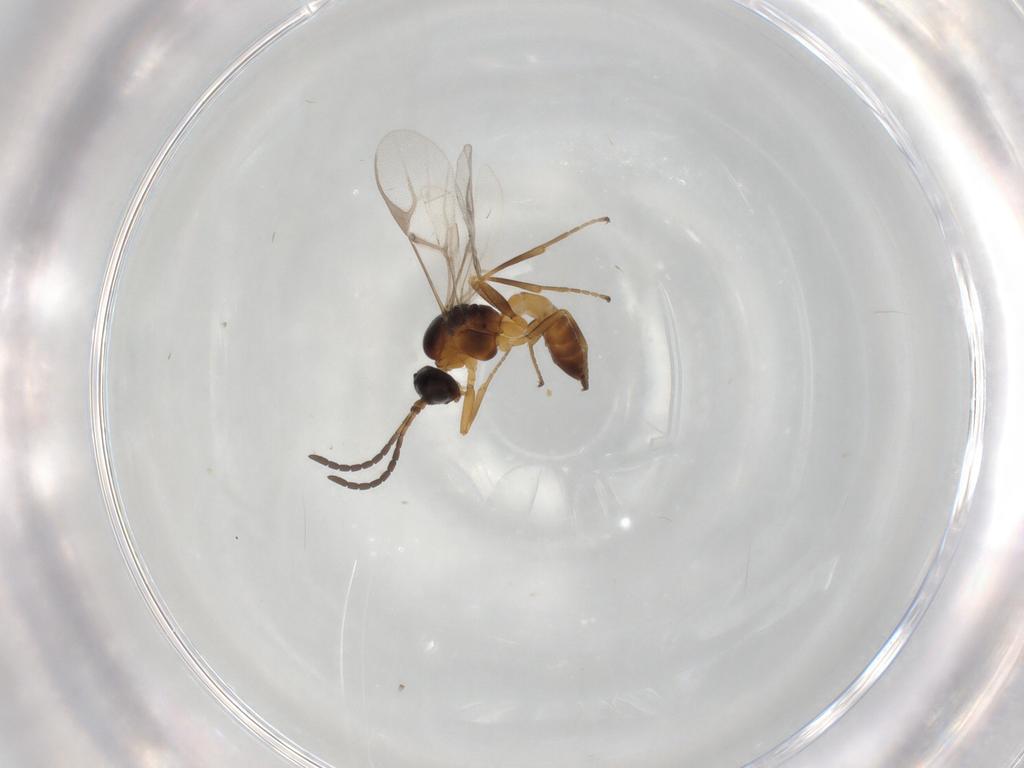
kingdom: Animalia
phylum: Arthropoda
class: Insecta
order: Hymenoptera
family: Braconidae
